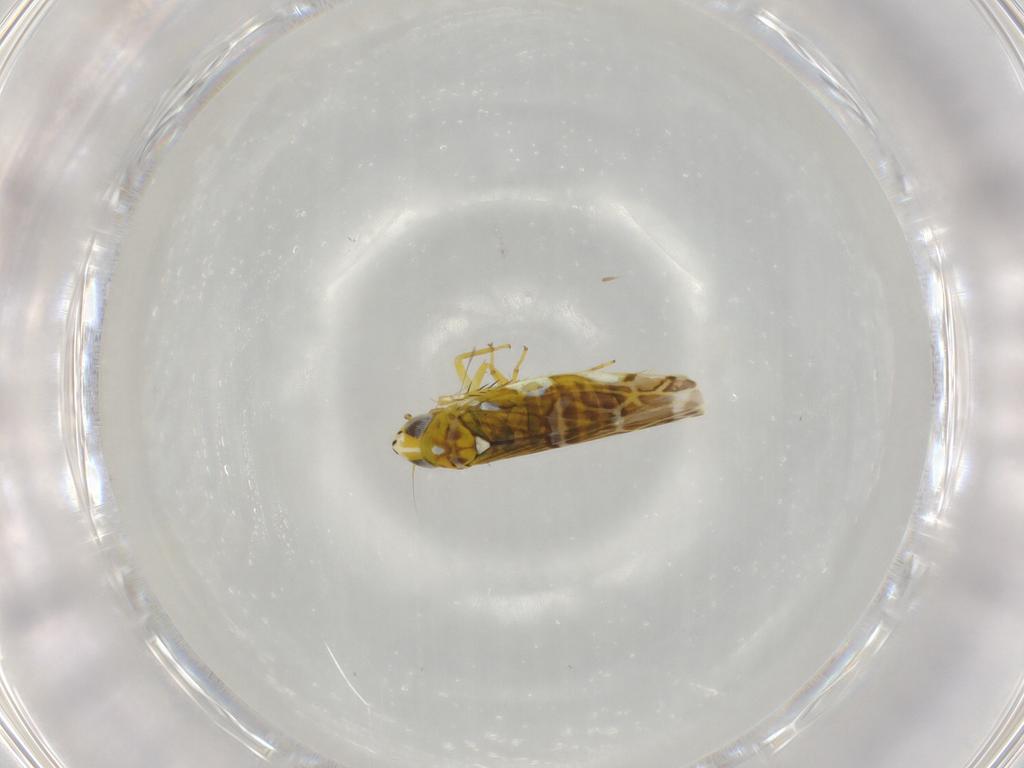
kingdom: Animalia
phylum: Arthropoda
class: Insecta
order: Hemiptera
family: Cicadellidae
